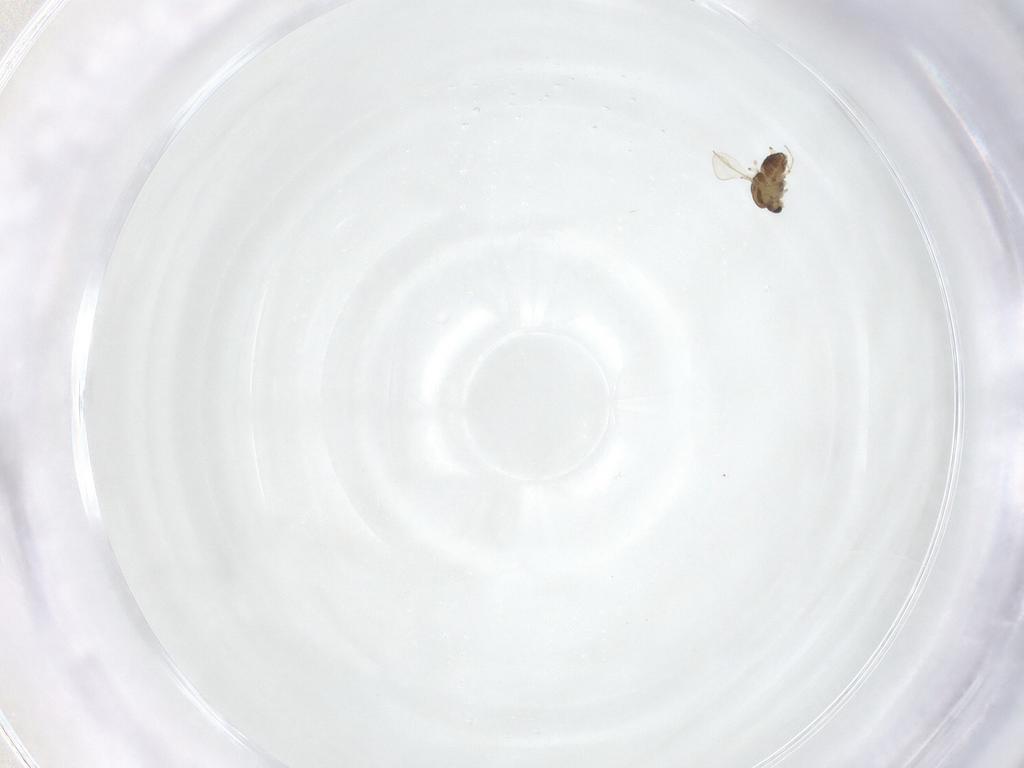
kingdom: Animalia
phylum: Arthropoda
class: Insecta
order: Diptera
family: Chironomidae
